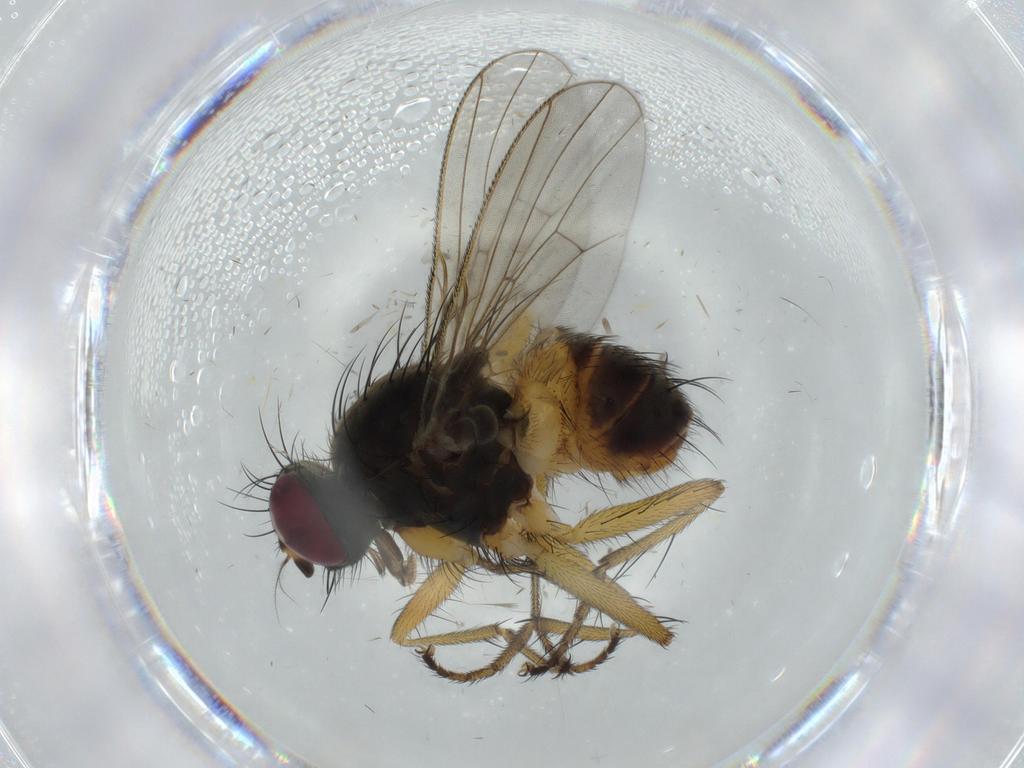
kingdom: Animalia
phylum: Arthropoda
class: Insecta
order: Diptera
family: Muscidae
